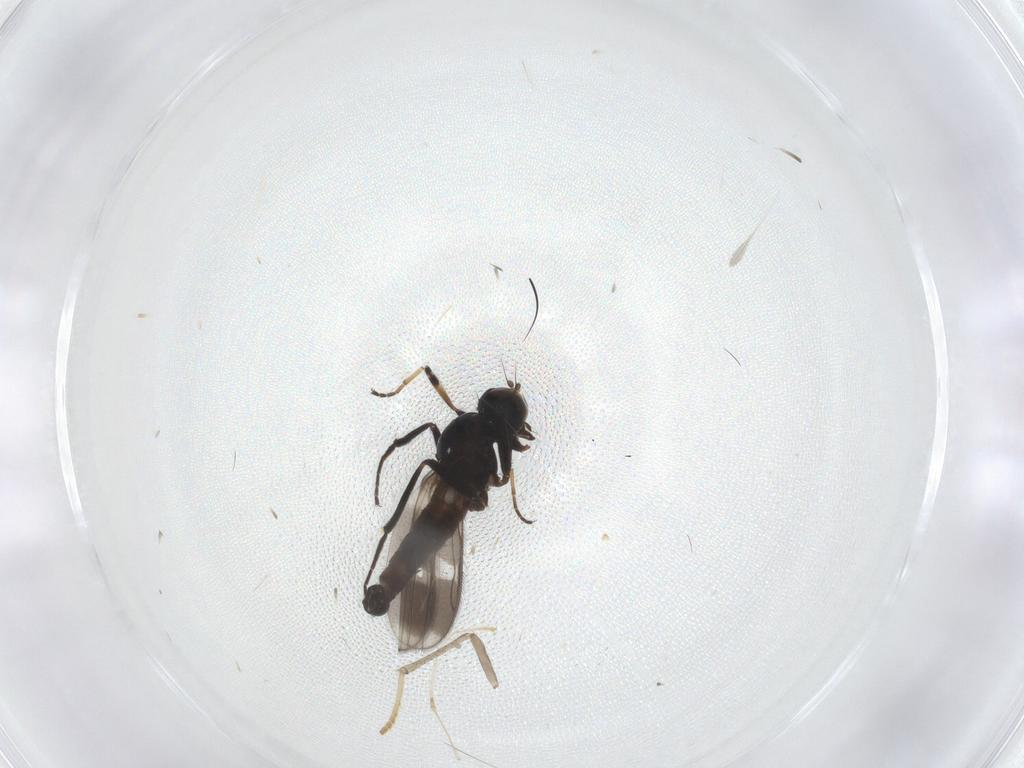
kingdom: Animalia
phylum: Arthropoda
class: Insecta
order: Diptera
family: Hybotidae
